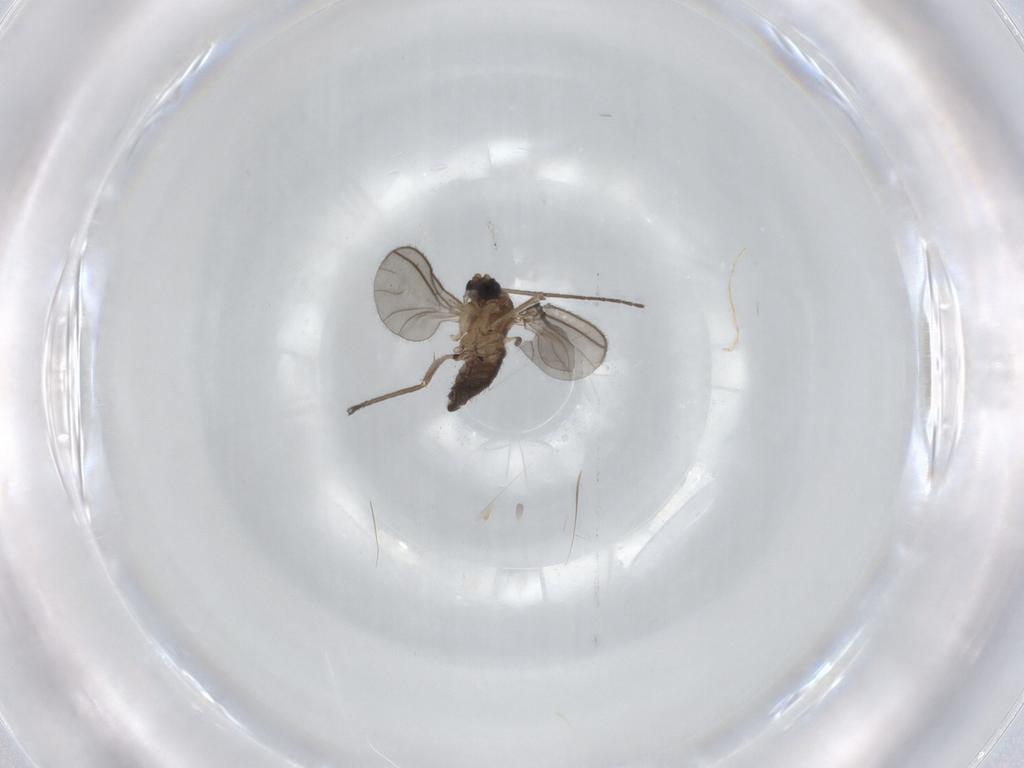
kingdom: Animalia
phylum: Arthropoda
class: Insecta
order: Diptera
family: Sciaridae
